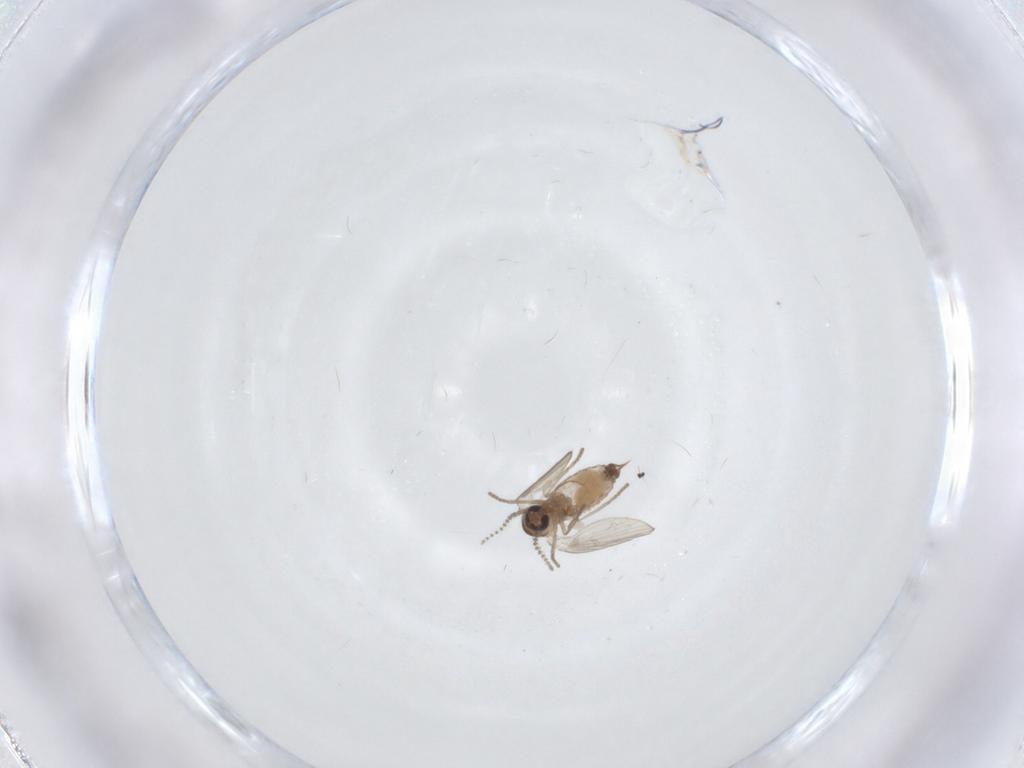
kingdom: Animalia
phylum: Arthropoda
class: Insecta
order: Diptera
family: Psychodidae
